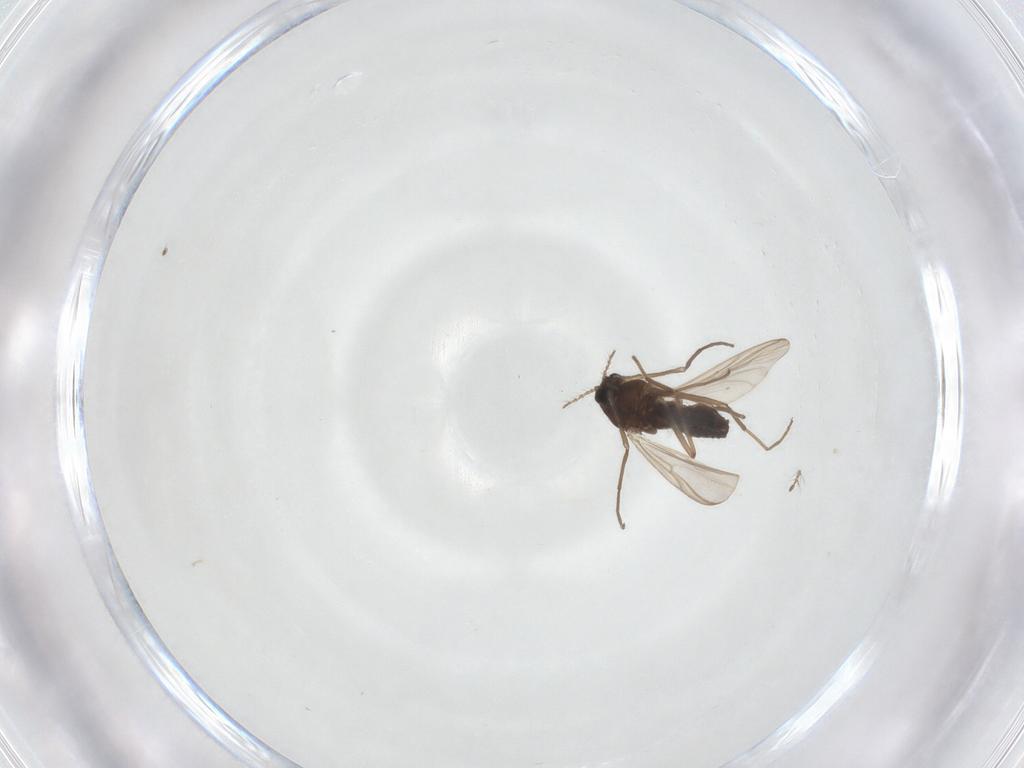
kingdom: Animalia
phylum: Arthropoda
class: Insecta
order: Diptera
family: Chironomidae
